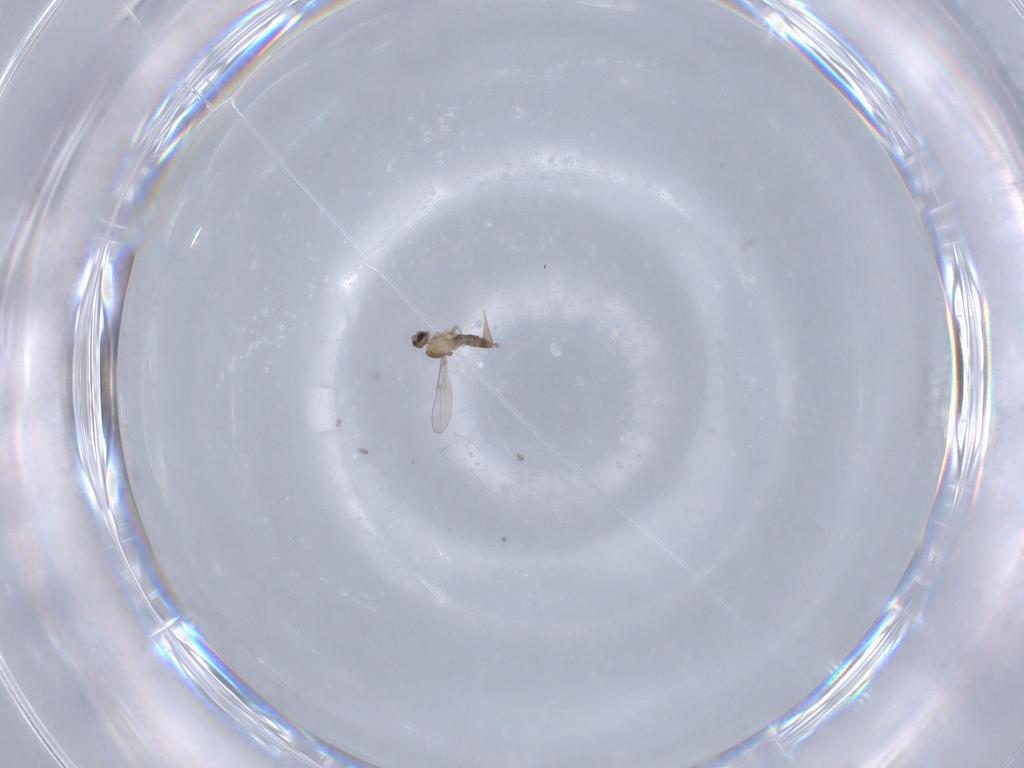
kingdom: Animalia
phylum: Arthropoda
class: Insecta
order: Diptera
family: Cecidomyiidae
